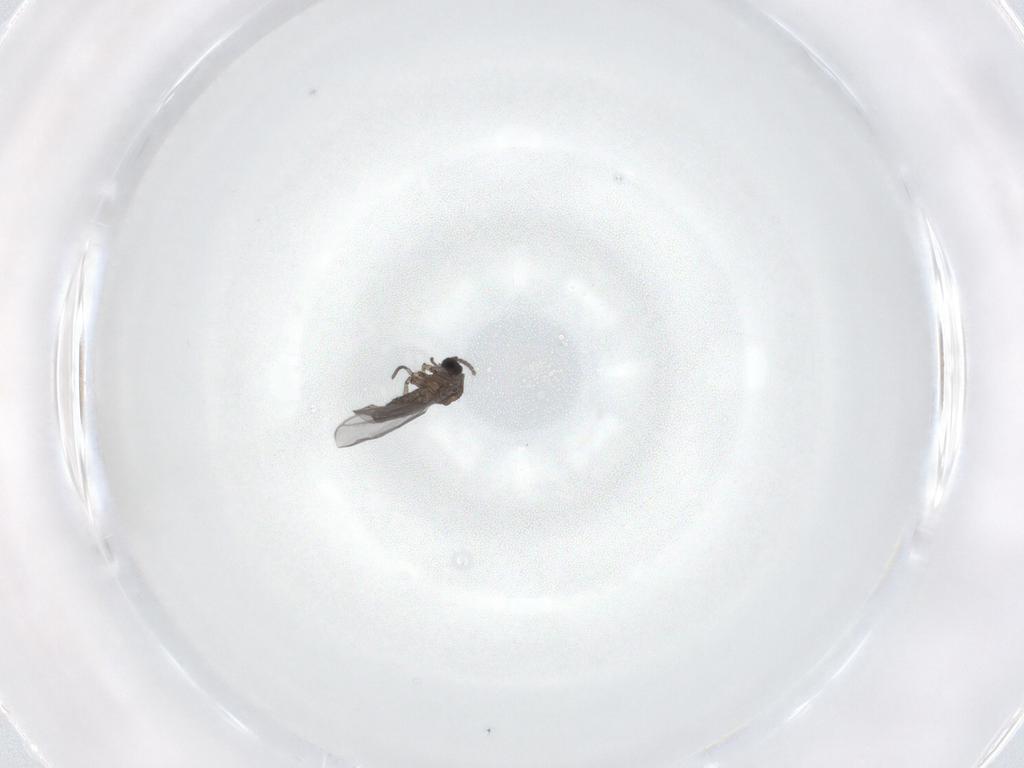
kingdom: Animalia
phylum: Arthropoda
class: Insecta
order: Diptera
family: Sciaridae
